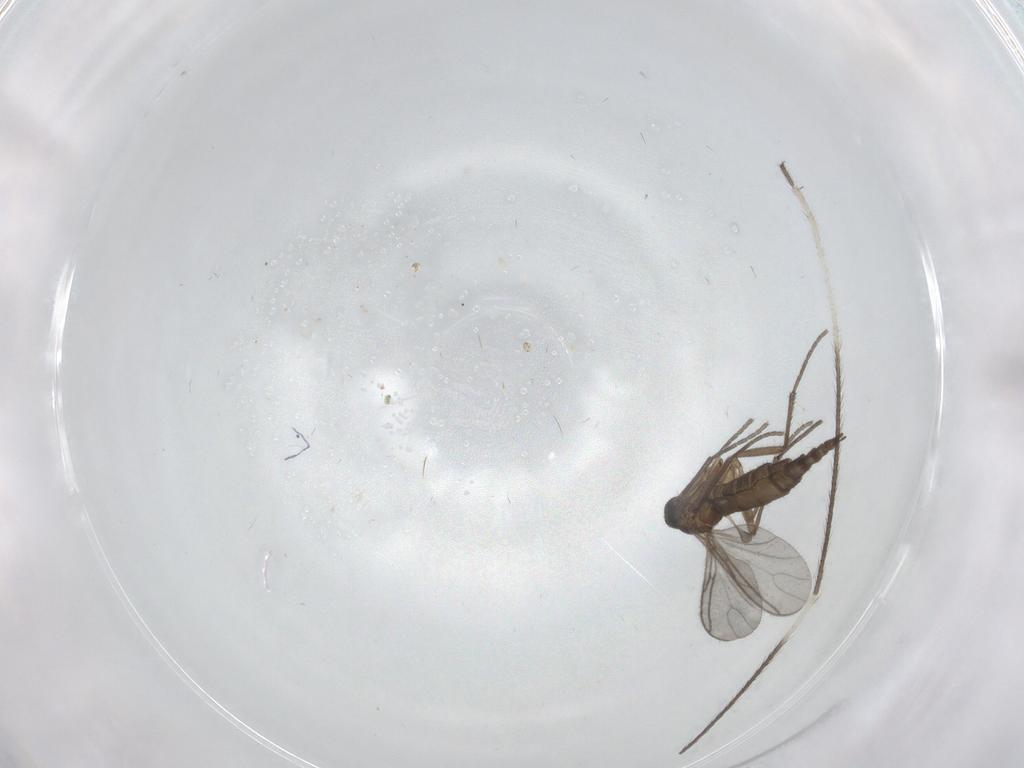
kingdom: Animalia
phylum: Arthropoda
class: Insecta
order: Diptera
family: Sciaridae
